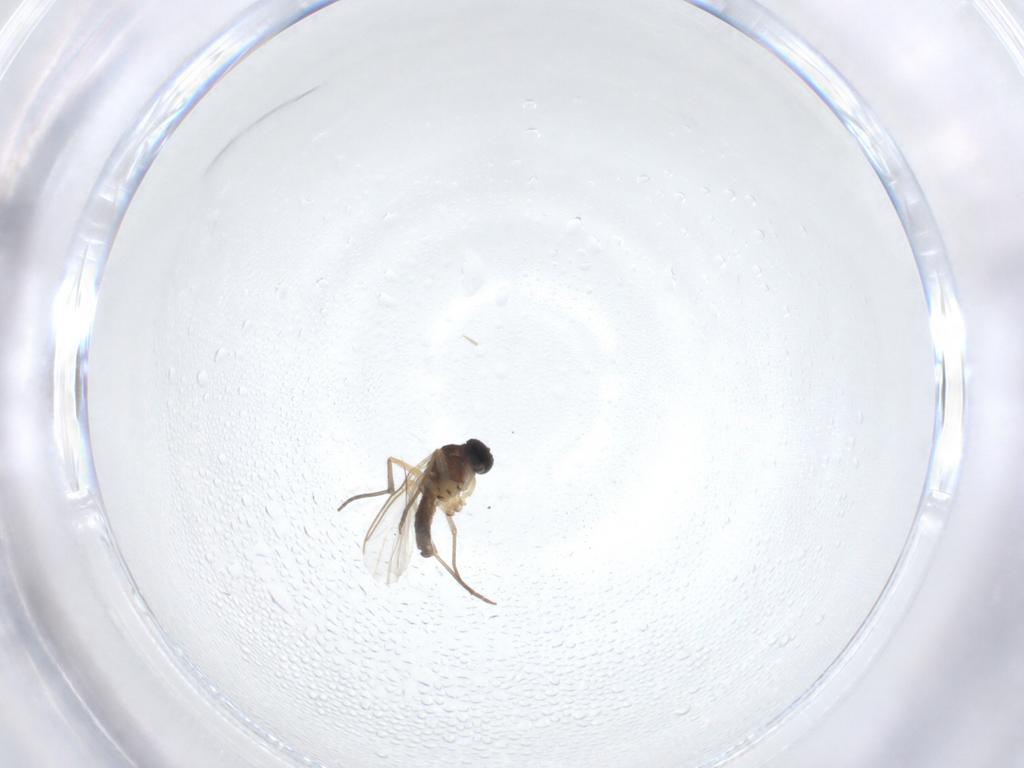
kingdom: Animalia
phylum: Arthropoda
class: Insecta
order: Diptera
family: Sciaridae
